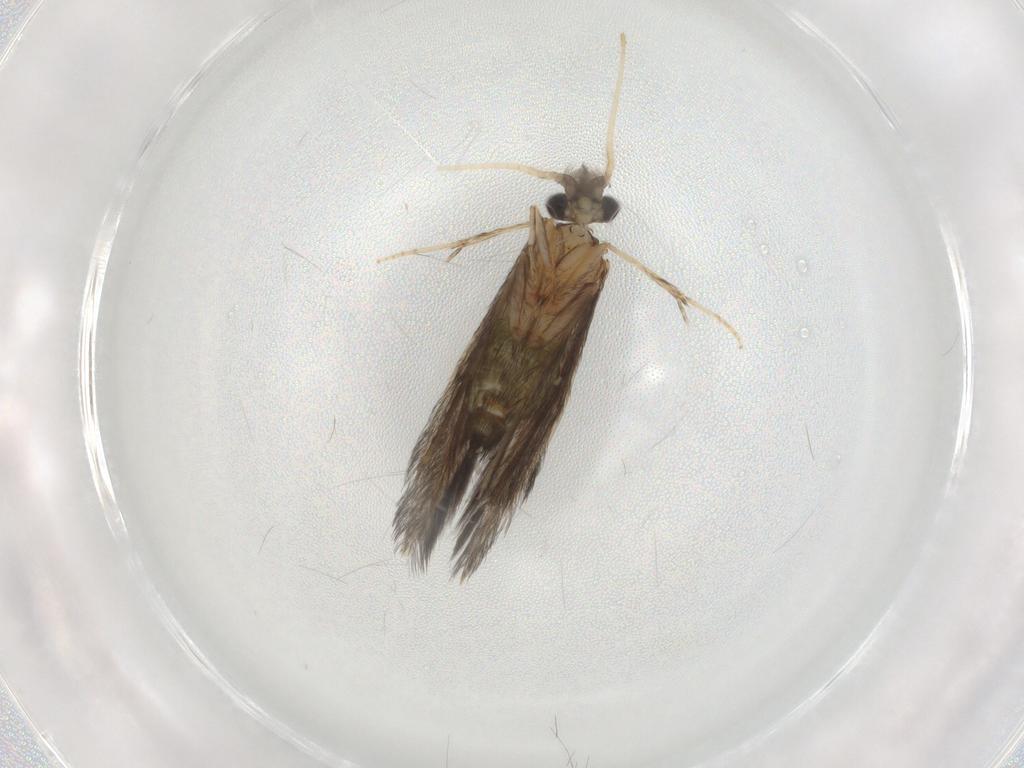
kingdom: Animalia
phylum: Arthropoda
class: Insecta
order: Trichoptera
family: Hydroptilidae
